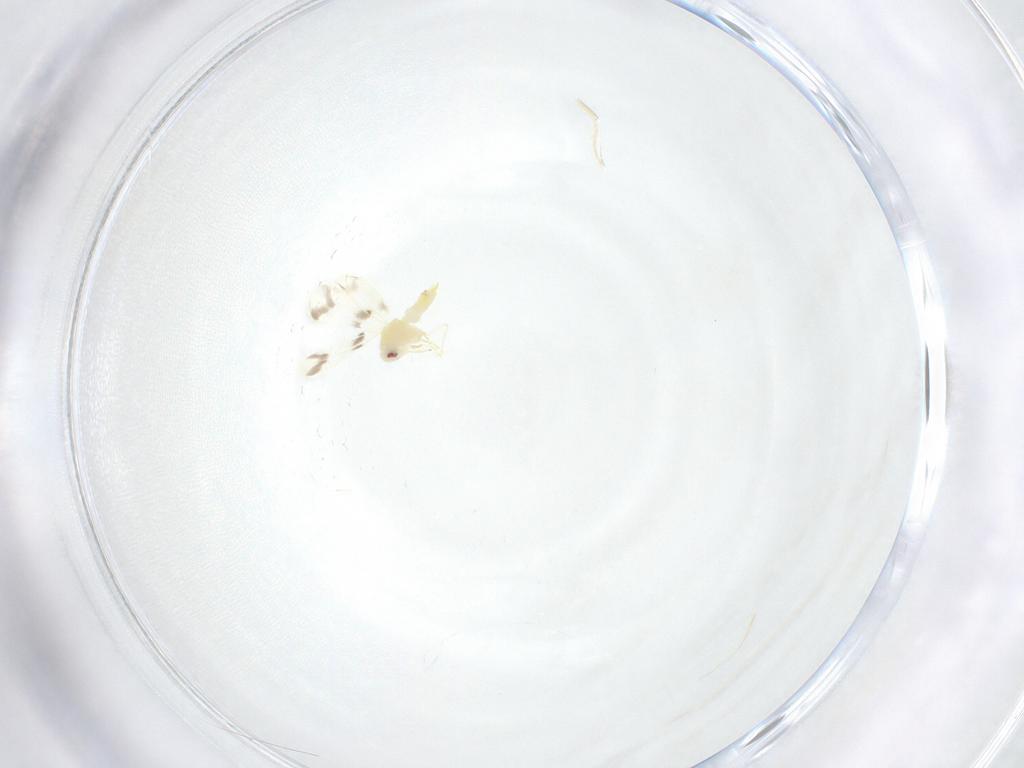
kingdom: Animalia
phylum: Arthropoda
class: Insecta
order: Hemiptera
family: Aleyrodidae
